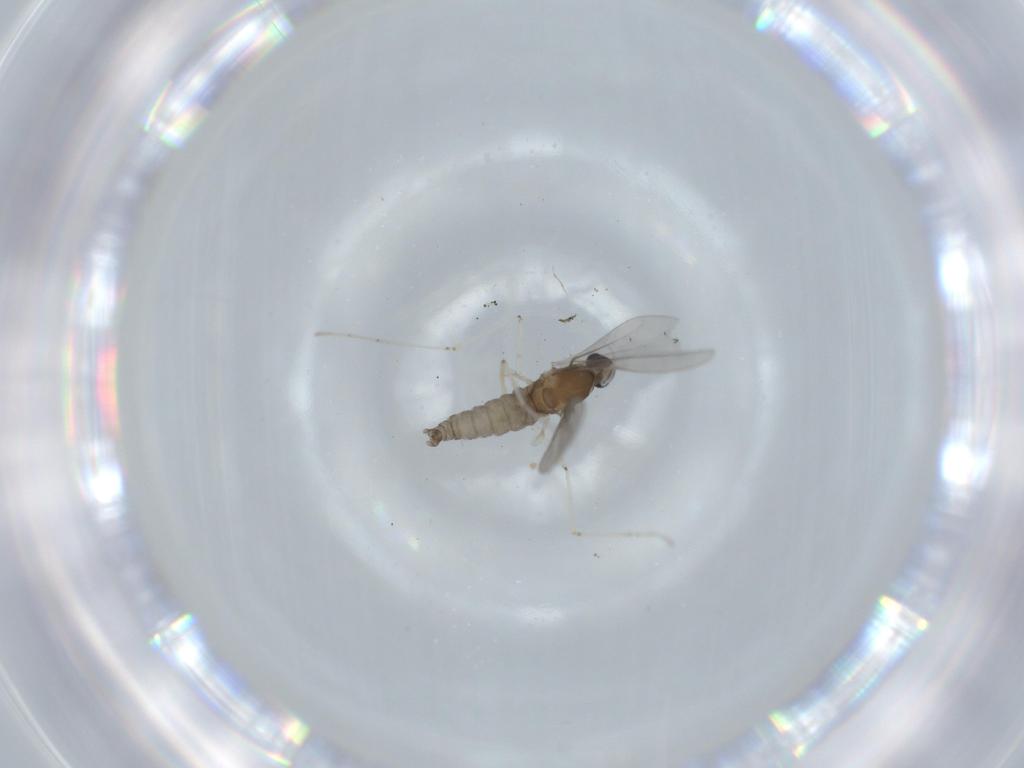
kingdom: Animalia
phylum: Arthropoda
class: Insecta
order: Diptera
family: Cecidomyiidae
